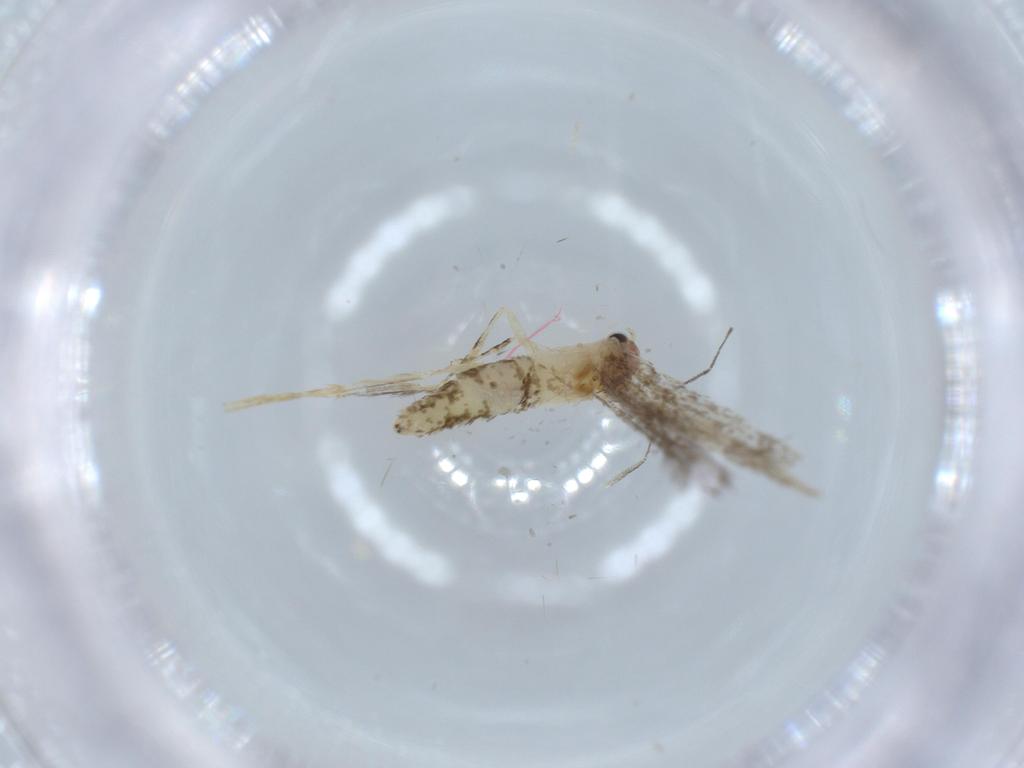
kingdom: Animalia
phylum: Arthropoda
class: Insecta
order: Lepidoptera
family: Tineidae
